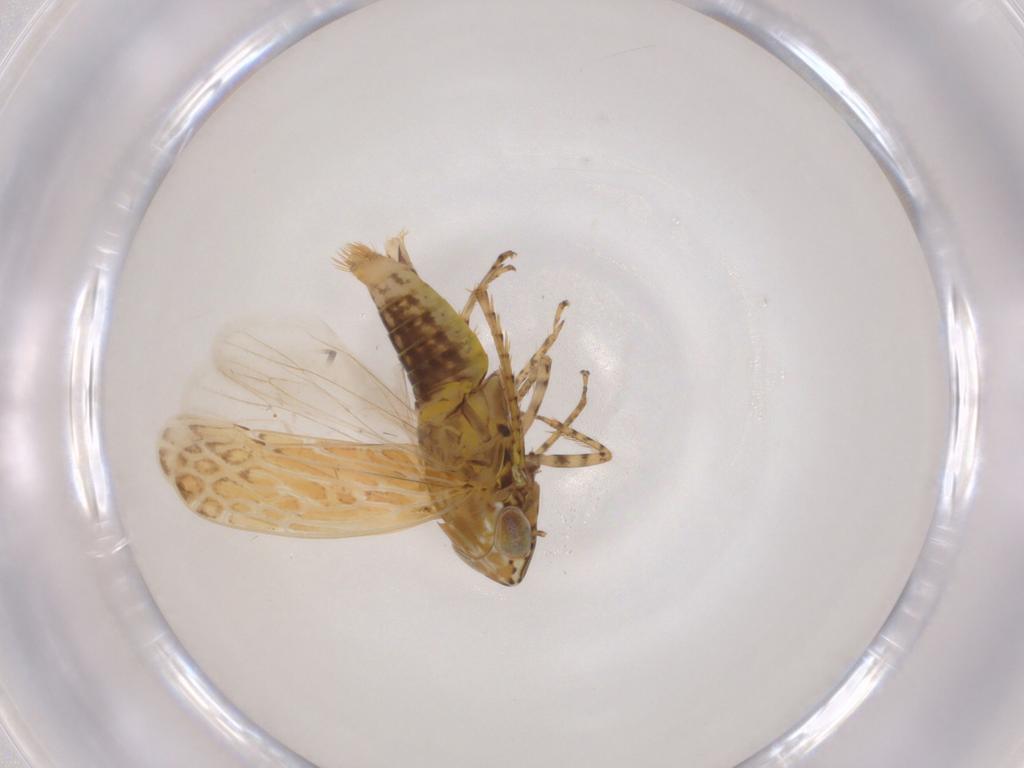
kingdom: Animalia
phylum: Arthropoda
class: Insecta
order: Hemiptera
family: Cicadellidae
